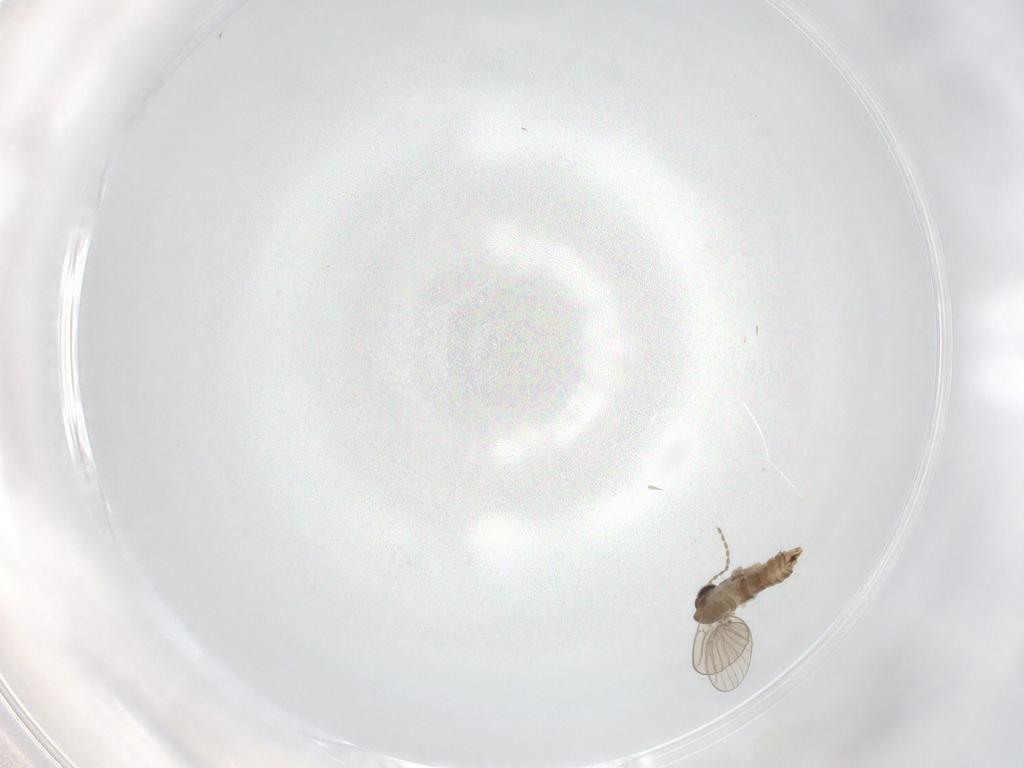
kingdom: Animalia
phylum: Arthropoda
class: Insecta
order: Diptera
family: Psychodidae
